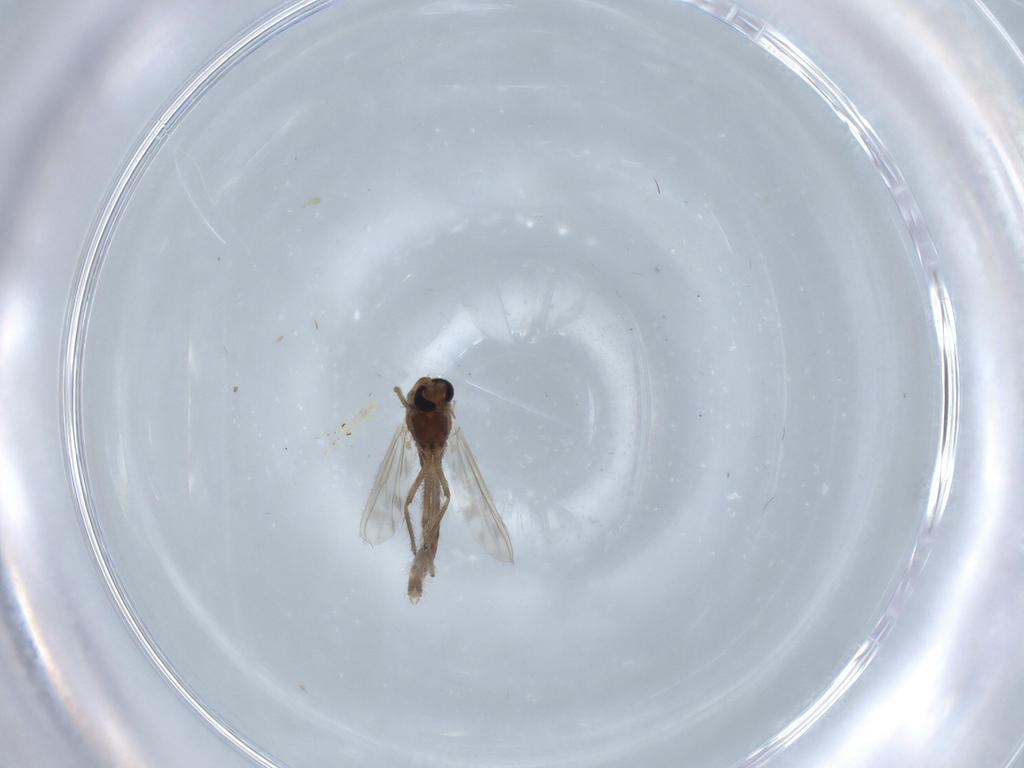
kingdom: Animalia
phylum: Arthropoda
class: Insecta
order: Diptera
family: Chironomidae
